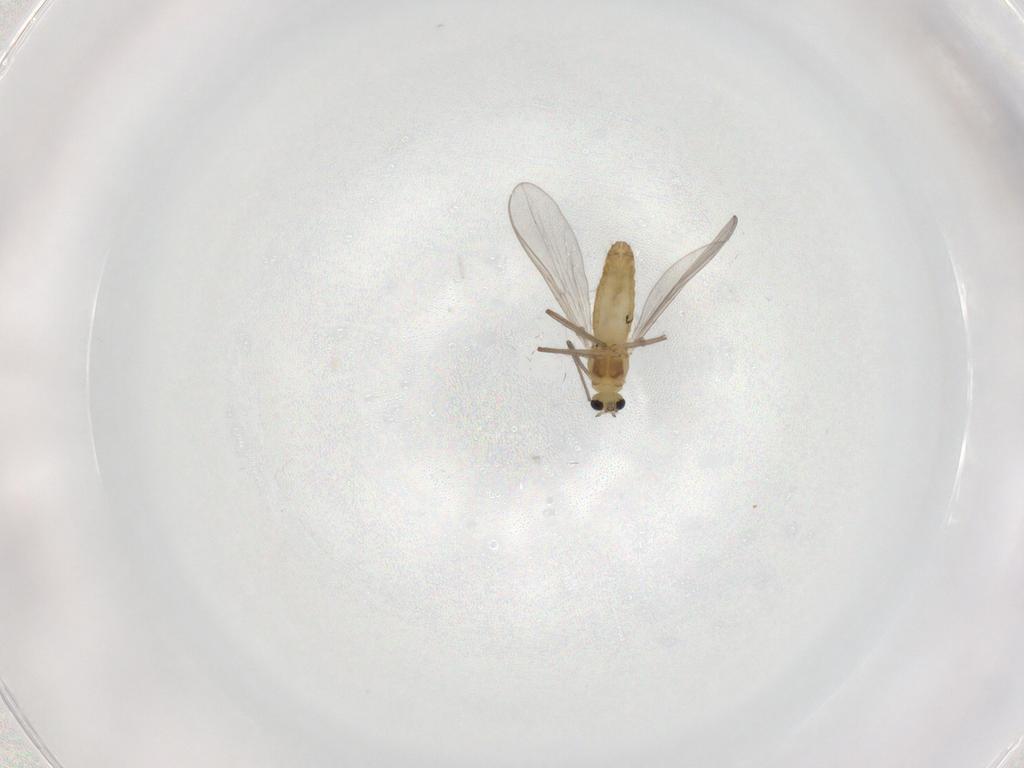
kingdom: Animalia
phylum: Arthropoda
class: Insecta
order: Diptera
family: Chironomidae
